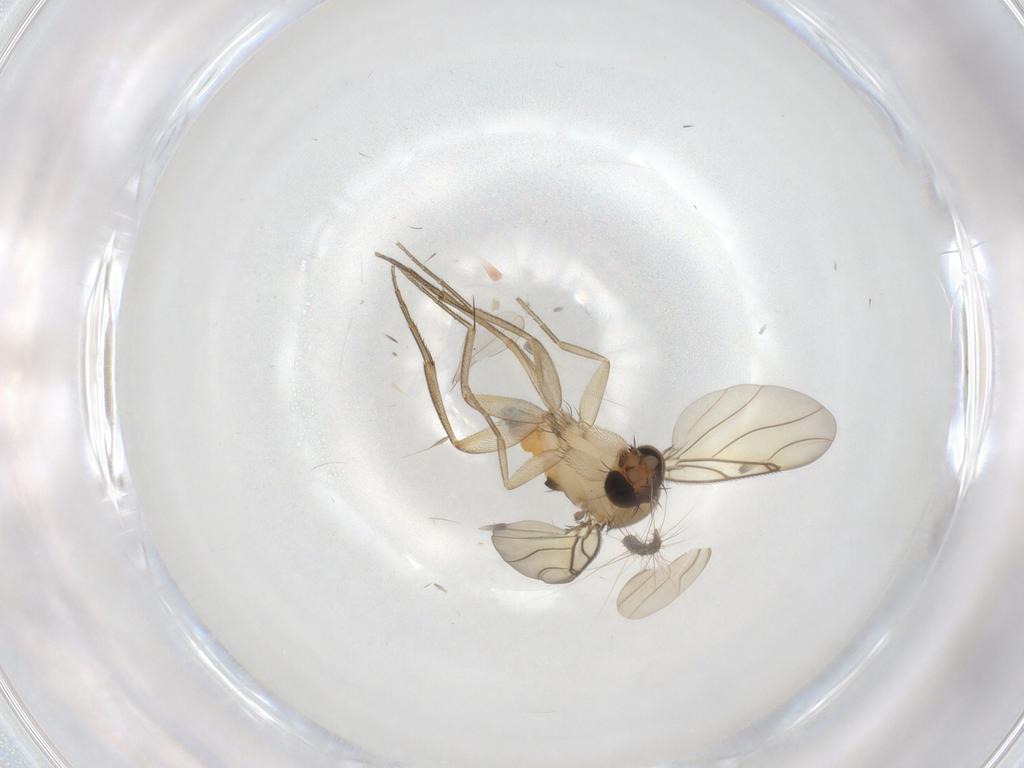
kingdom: Animalia
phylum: Arthropoda
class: Insecta
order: Diptera
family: Phoridae
